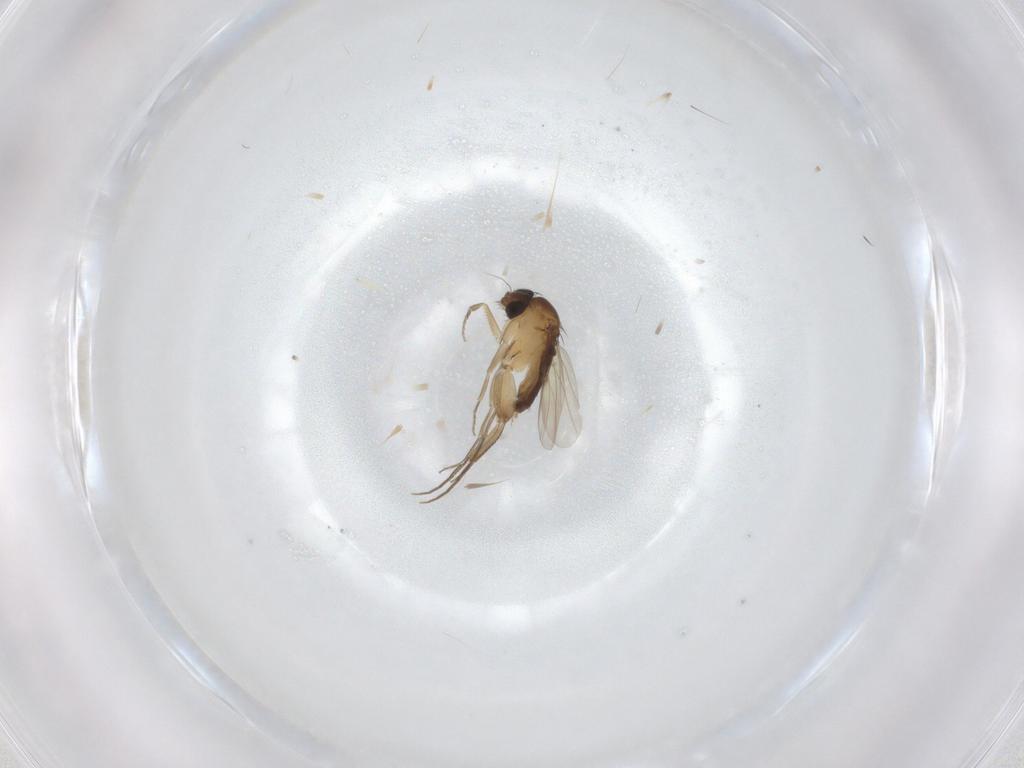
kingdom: Animalia
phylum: Arthropoda
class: Insecta
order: Diptera
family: Phoridae
